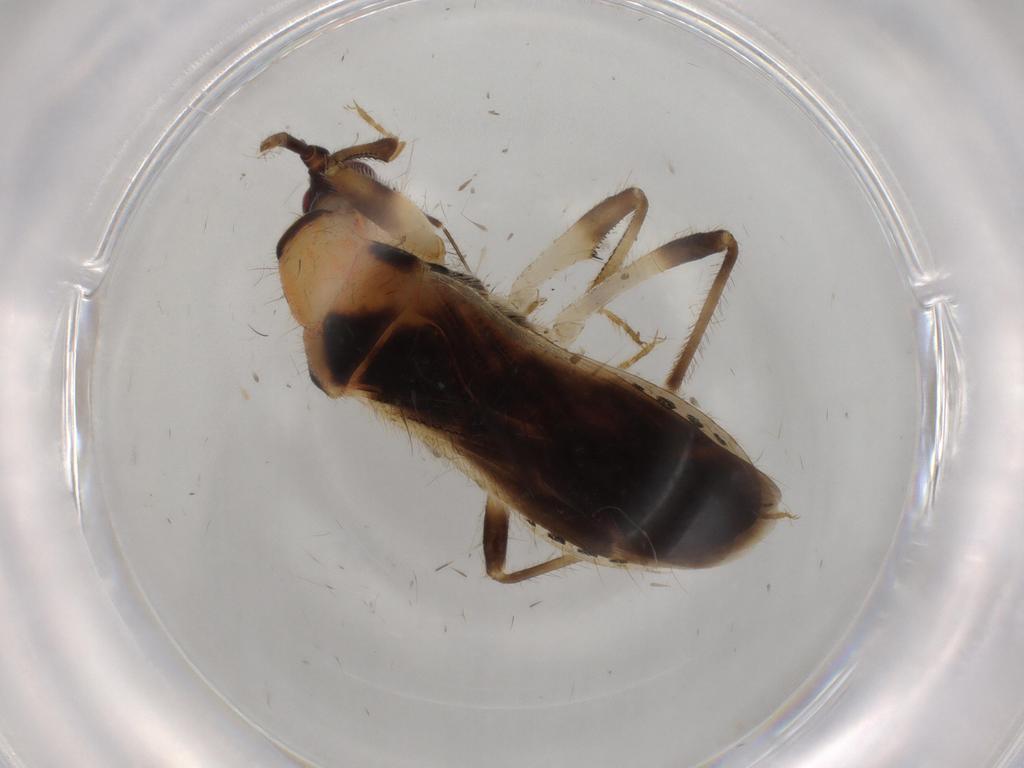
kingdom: Animalia
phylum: Arthropoda
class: Insecta
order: Hemiptera
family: Nabidae
